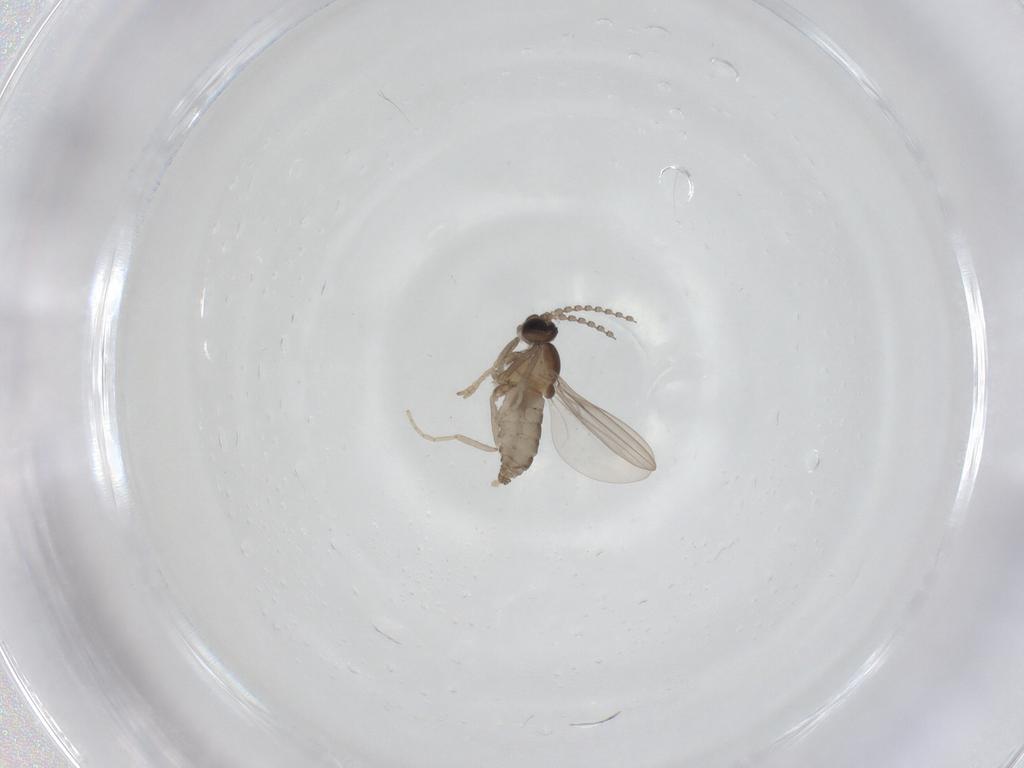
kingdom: Animalia
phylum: Arthropoda
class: Insecta
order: Diptera
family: Cecidomyiidae
